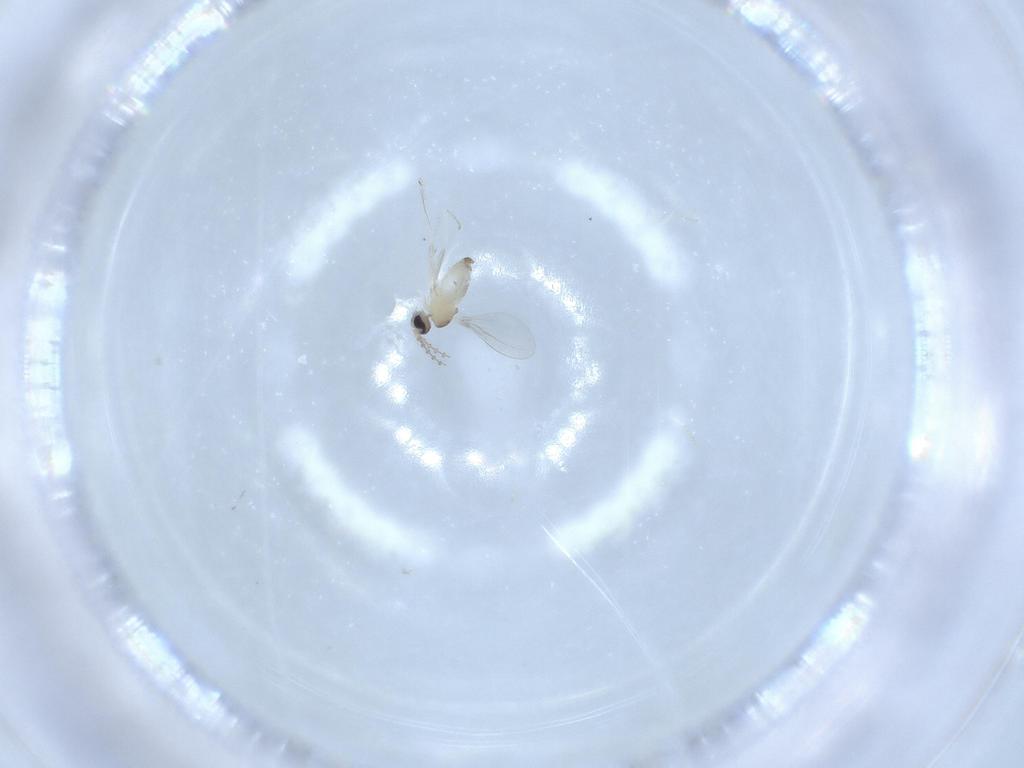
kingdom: Animalia
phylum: Arthropoda
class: Insecta
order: Diptera
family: Cecidomyiidae
